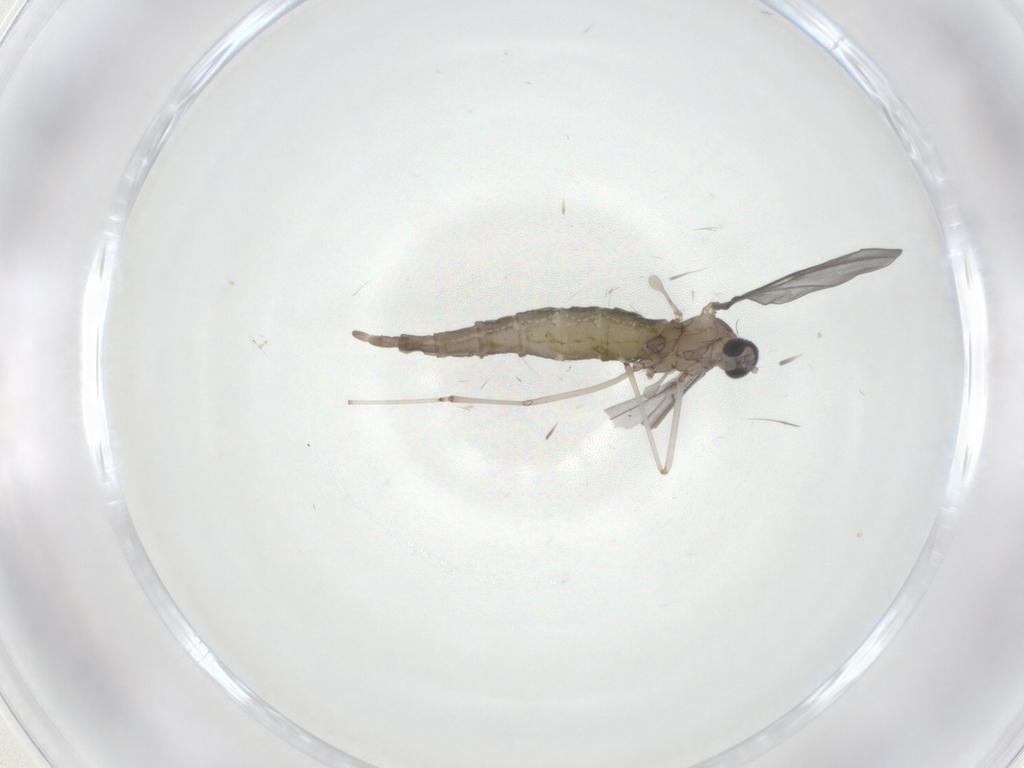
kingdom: Animalia
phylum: Arthropoda
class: Insecta
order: Diptera
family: Cecidomyiidae
